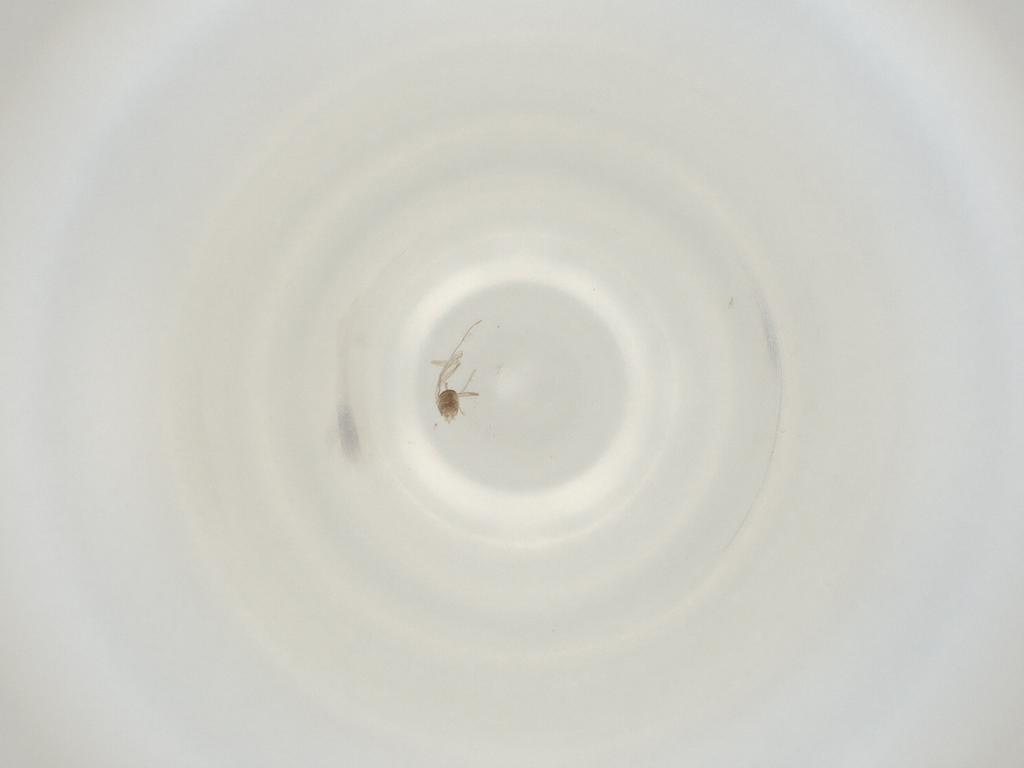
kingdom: Animalia
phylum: Arthropoda
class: Insecta
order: Diptera
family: Cecidomyiidae
